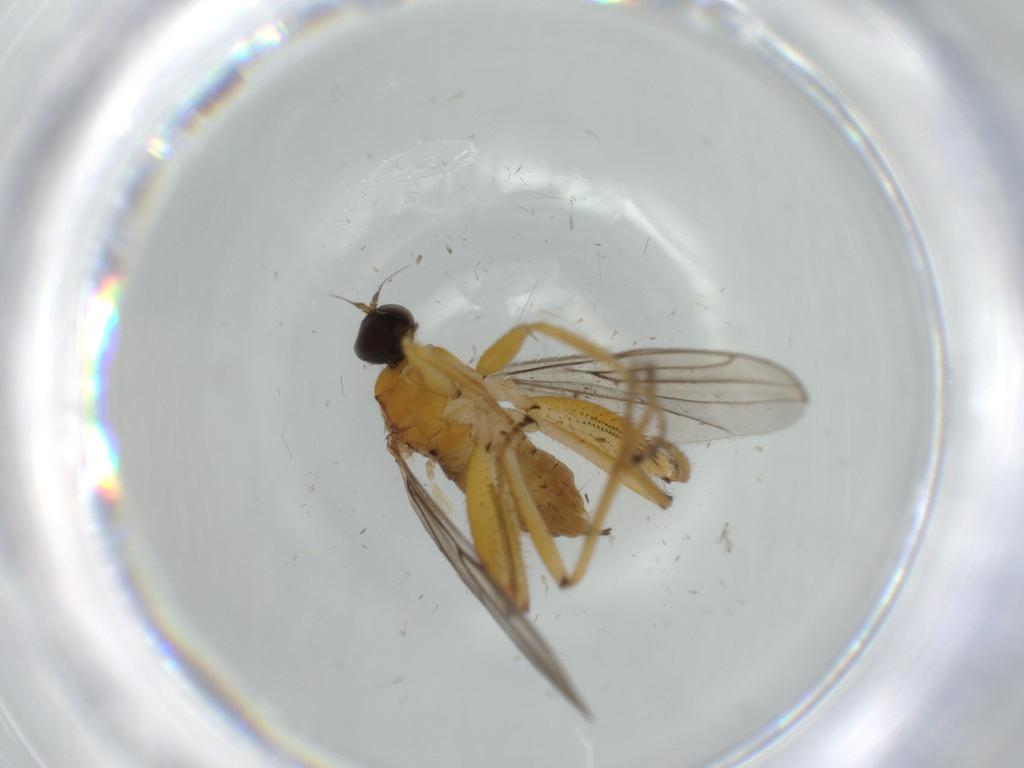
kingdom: Animalia
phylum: Arthropoda
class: Insecta
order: Diptera
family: Hybotidae
